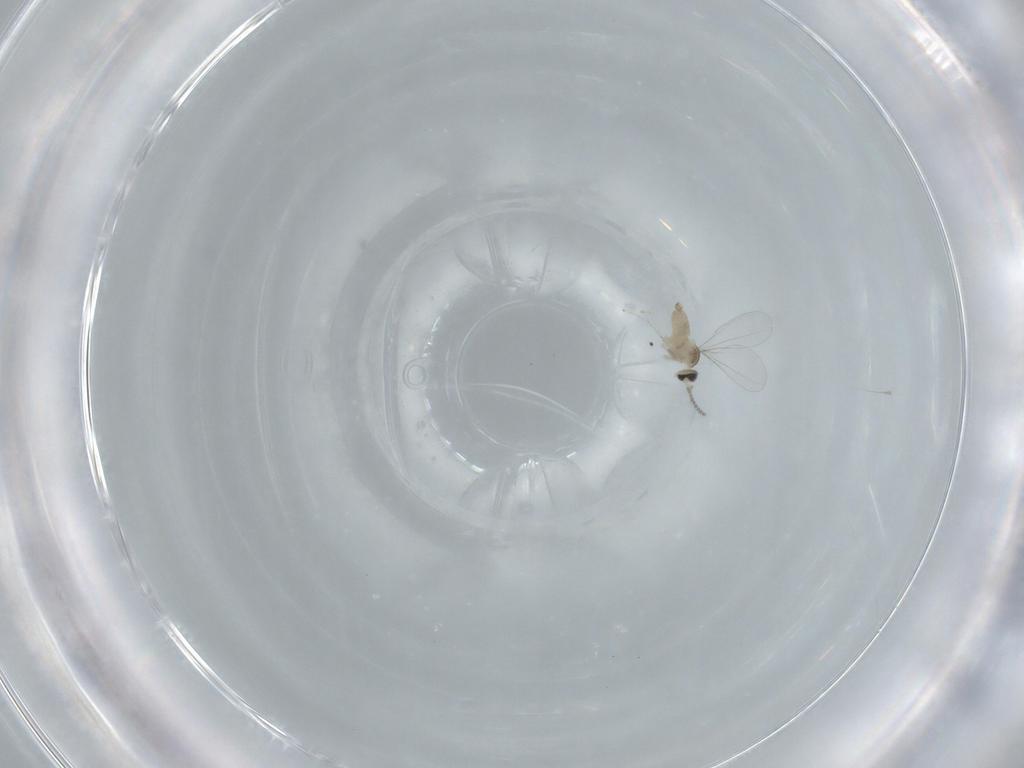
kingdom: Animalia
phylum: Arthropoda
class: Insecta
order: Diptera
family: Cecidomyiidae
